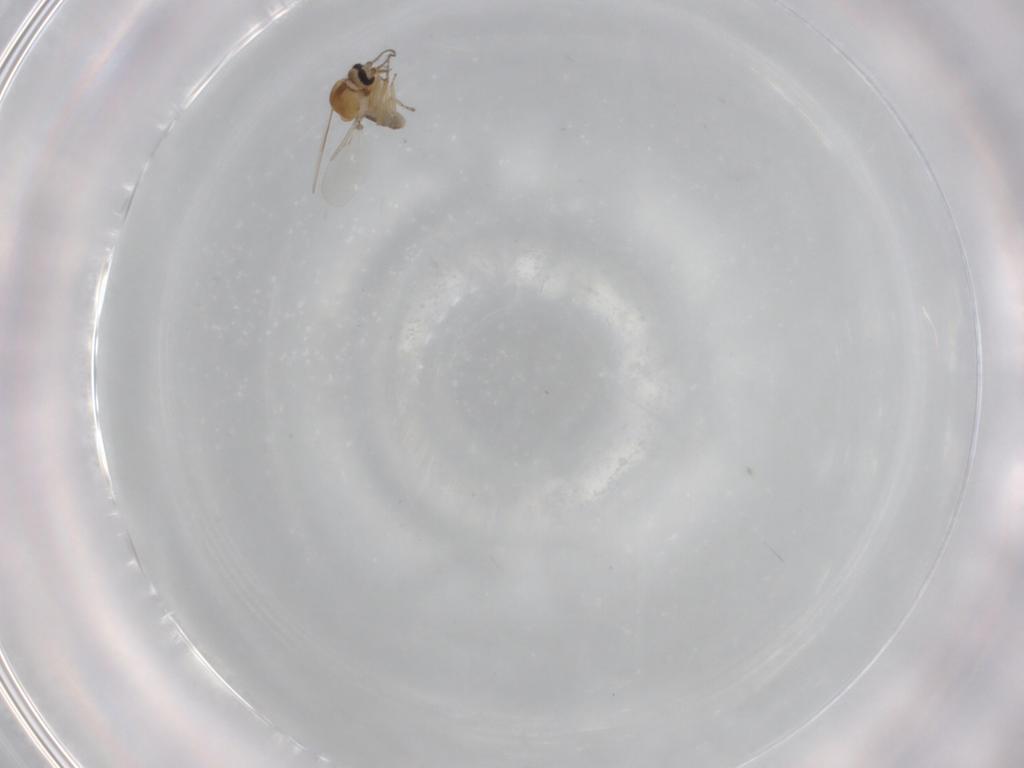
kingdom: Animalia
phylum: Arthropoda
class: Insecta
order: Diptera
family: Ceratopogonidae
